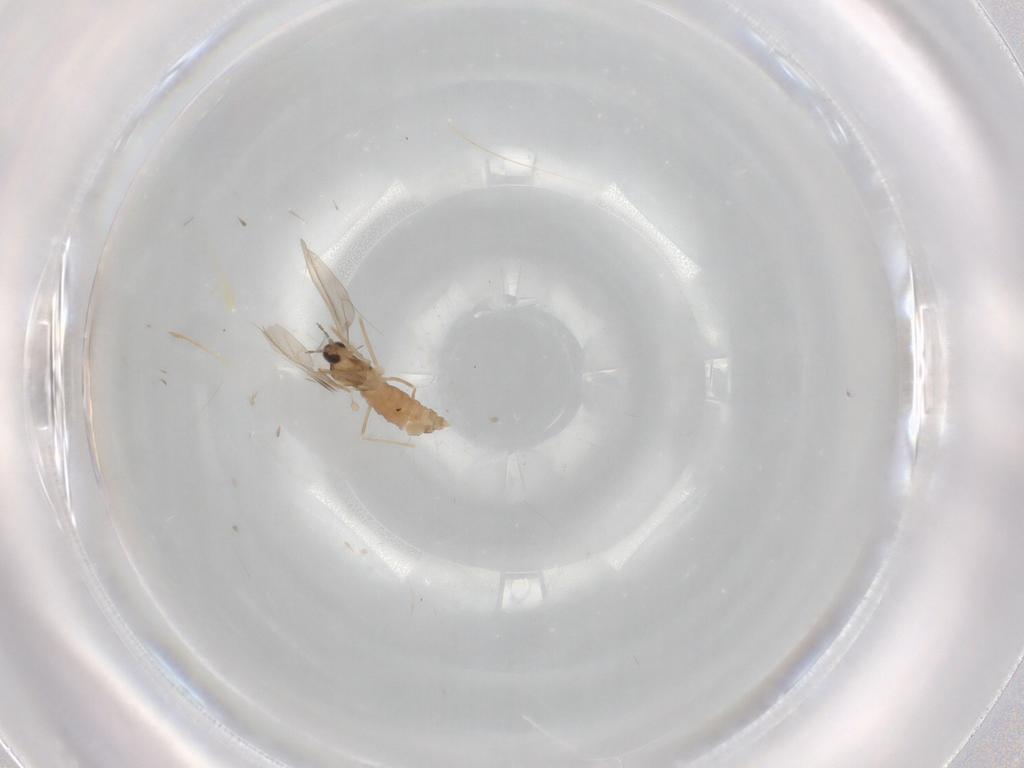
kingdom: Animalia
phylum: Arthropoda
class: Insecta
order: Diptera
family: Cecidomyiidae
